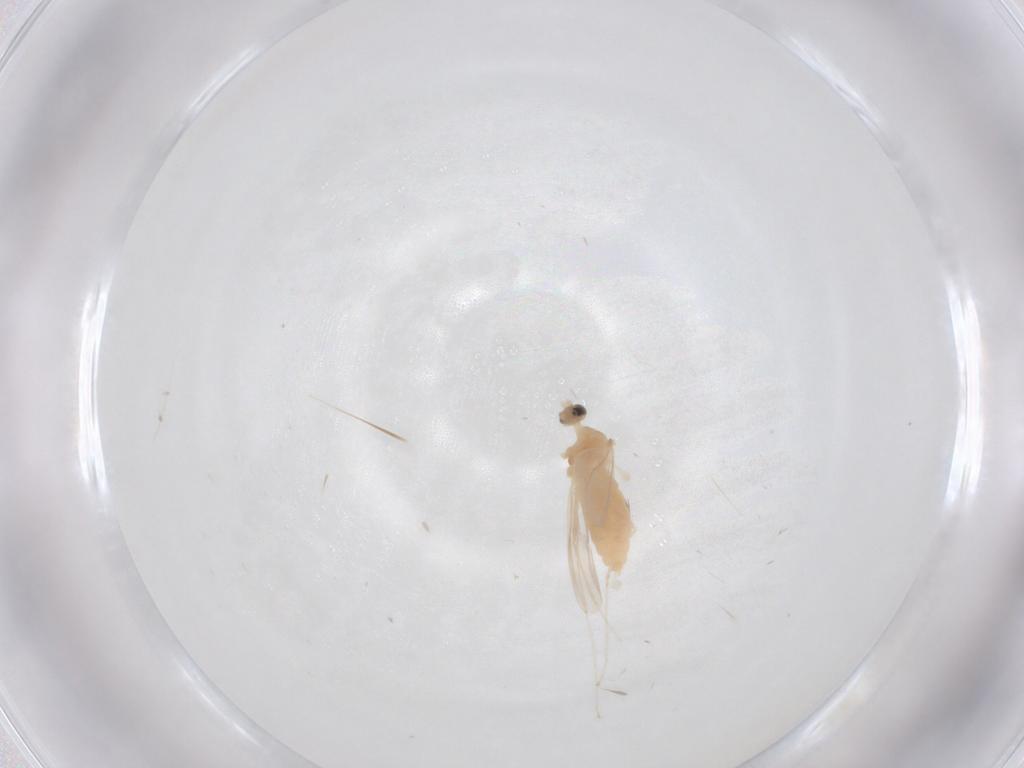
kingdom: Animalia
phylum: Arthropoda
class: Insecta
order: Diptera
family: Cecidomyiidae
